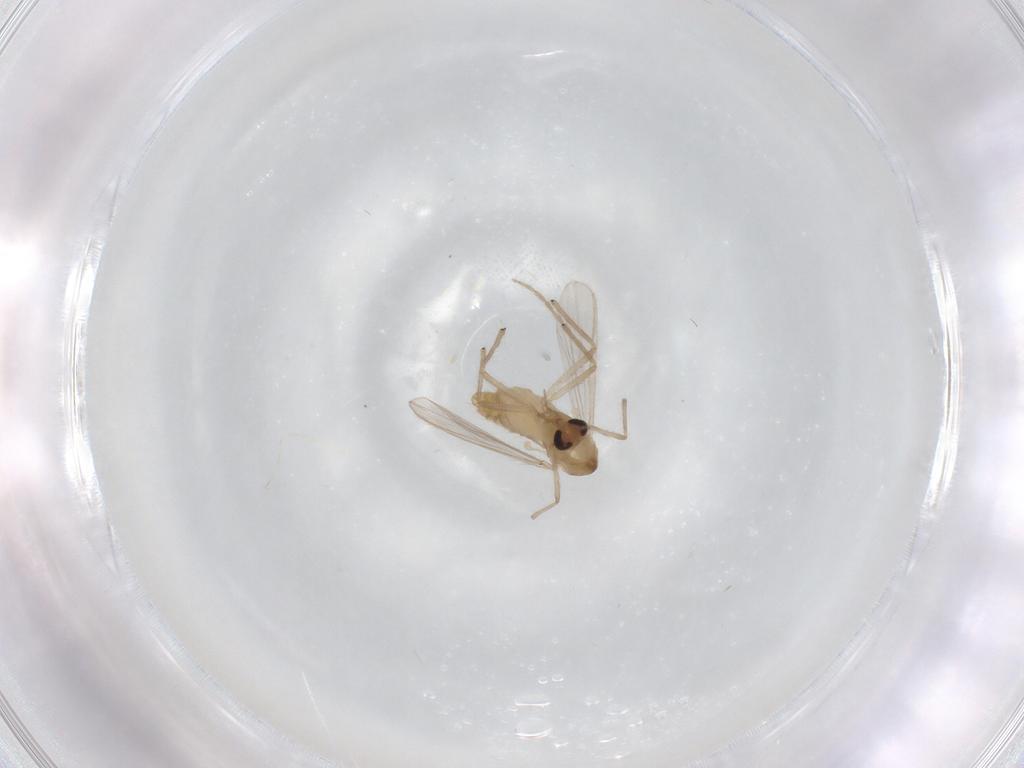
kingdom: Animalia
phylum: Arthropoda
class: Insecta
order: Diptera
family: Chironomidae
